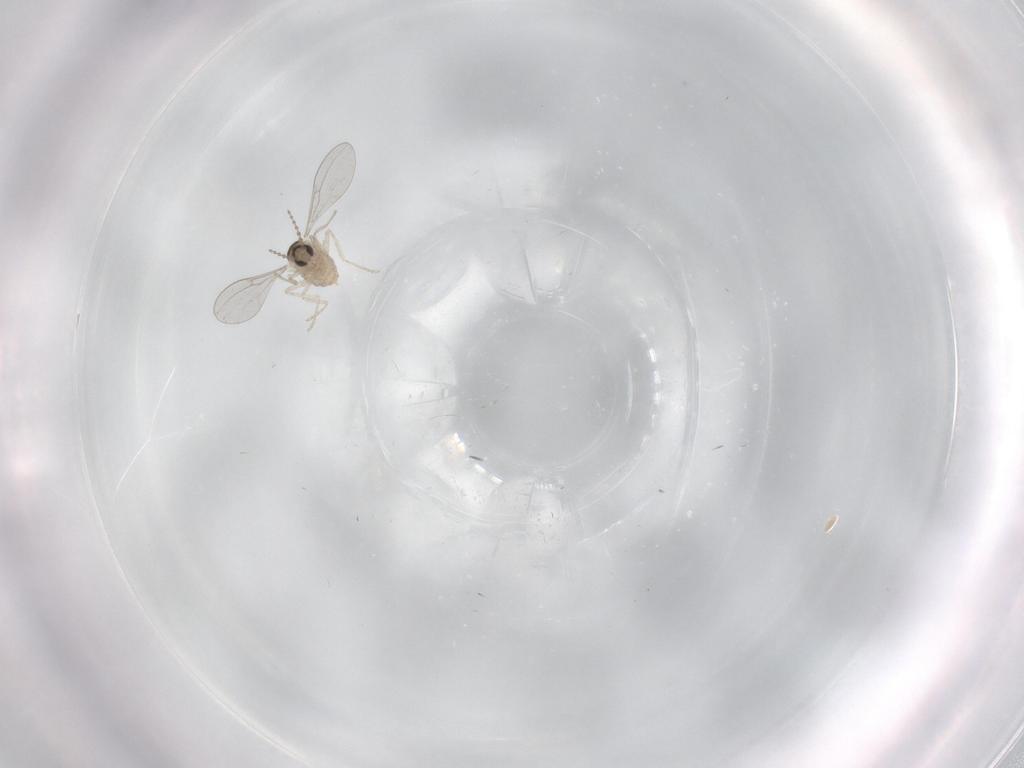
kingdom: Animalia
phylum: Arthropoda
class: Insecta
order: Diptera
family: Cecidomyiidae
